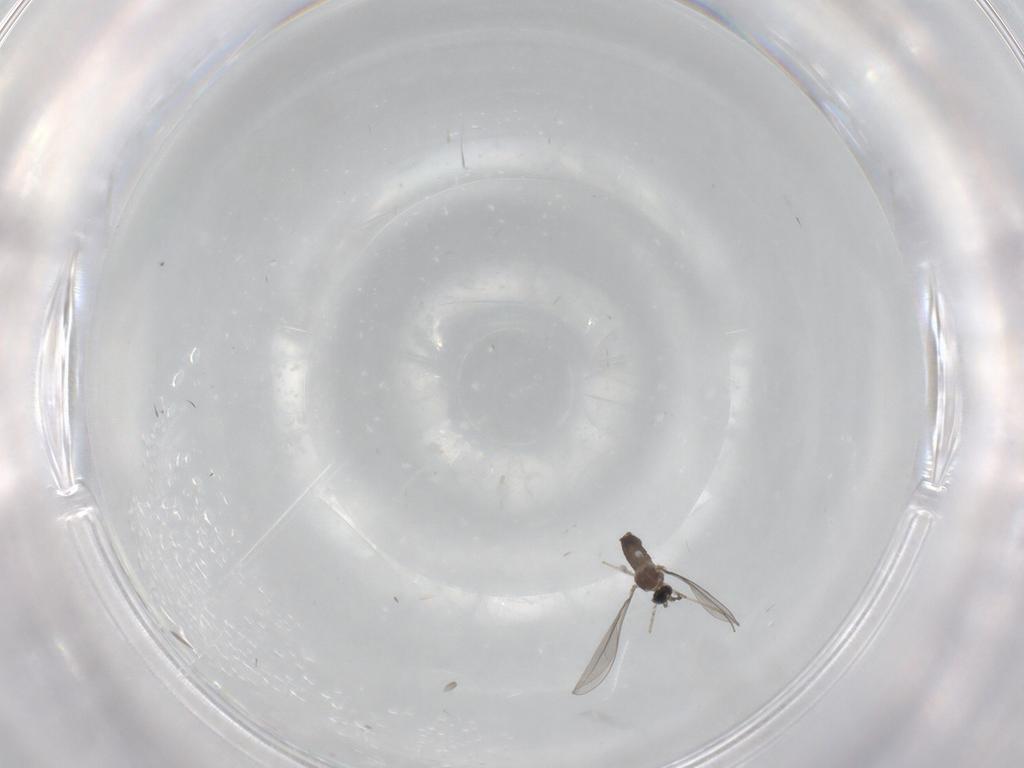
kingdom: Animalia
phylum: Arthropoda
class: Insecta
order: Diptera
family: Cecidomyiidae
